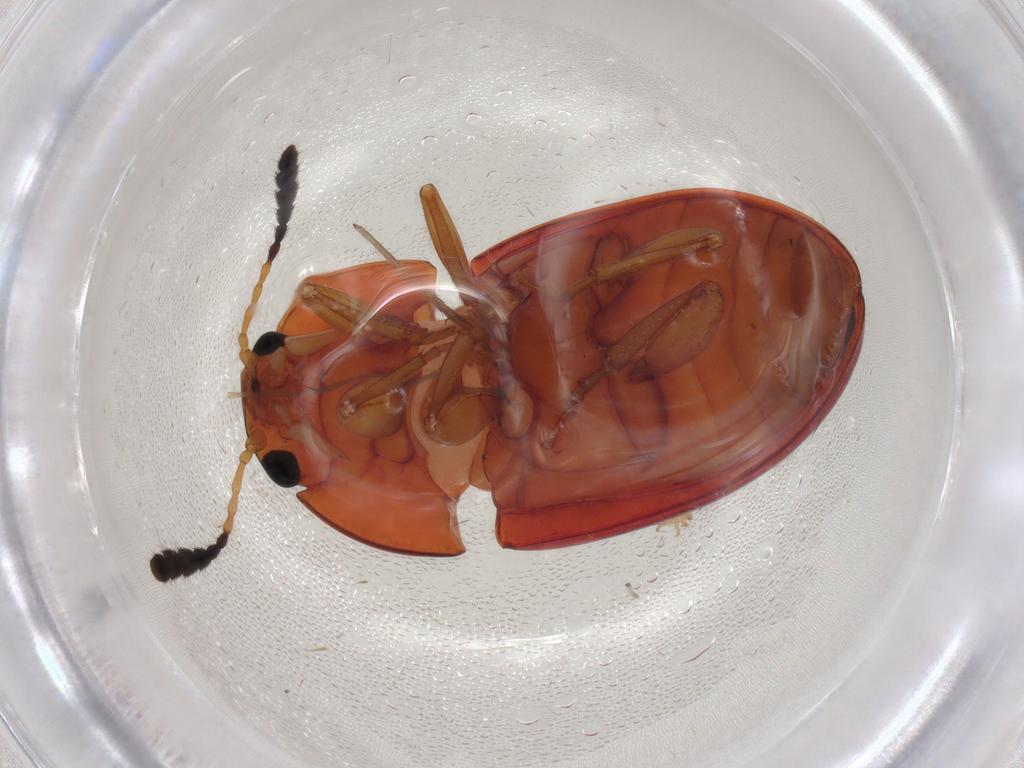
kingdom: Animalia
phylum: Arthropoda
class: Insecta
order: Coleoptera
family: Erotylidae
